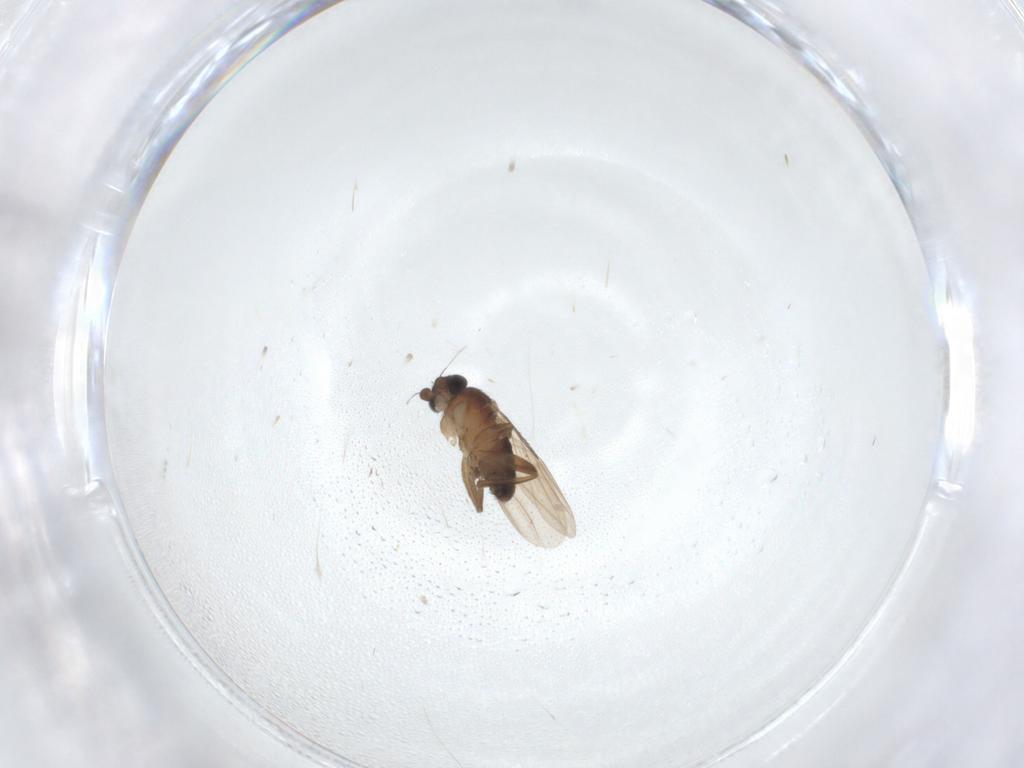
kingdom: Animalia
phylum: Arthropoda
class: Insecta
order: Diptera
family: Phoridae
